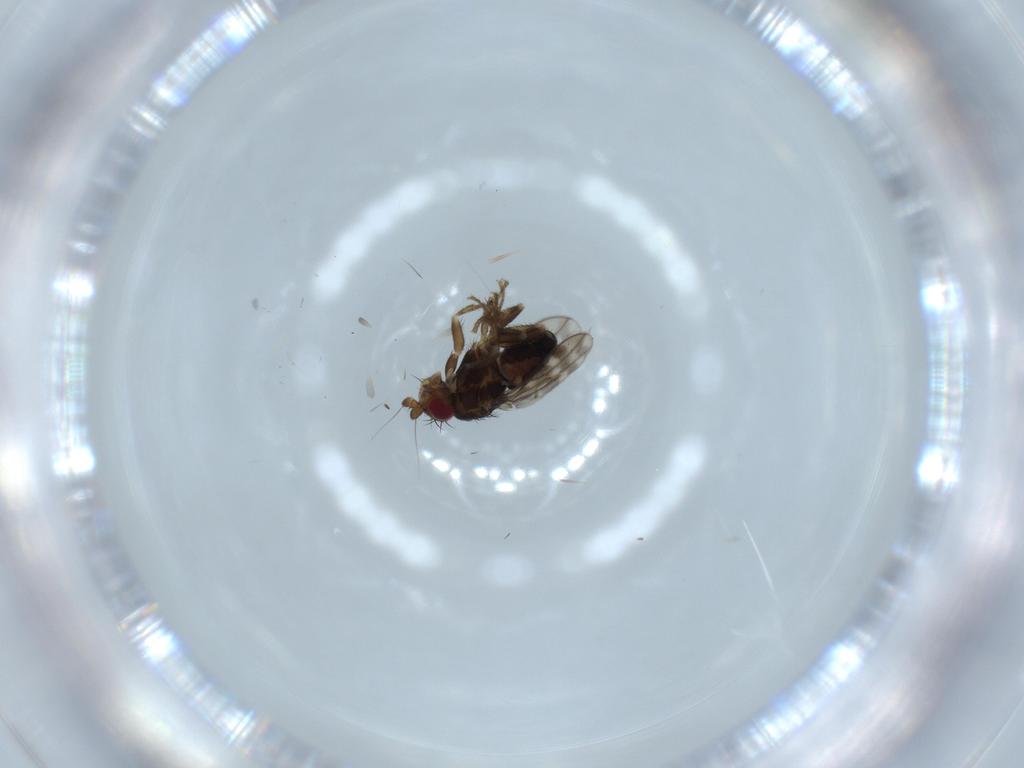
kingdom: Animalia
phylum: Arthropoda
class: Insecta
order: Diptera
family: Sphaeroceridae
